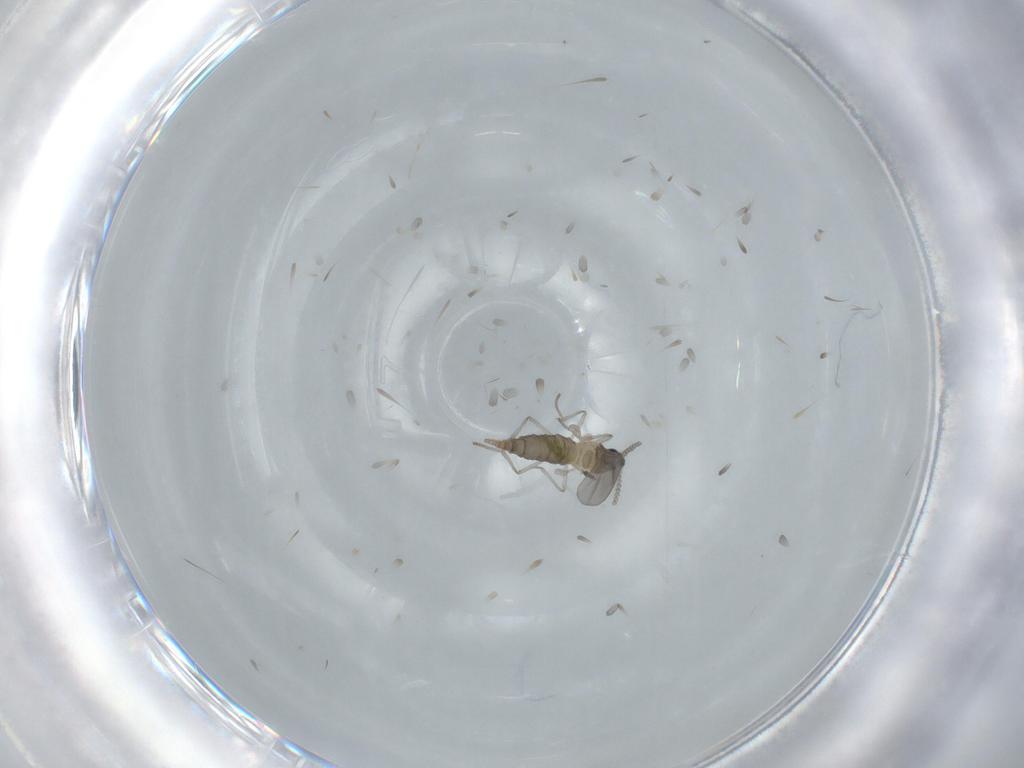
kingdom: Animalia
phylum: Arthropoda
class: Insecta
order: Diptera
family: Cecidomyiidae
